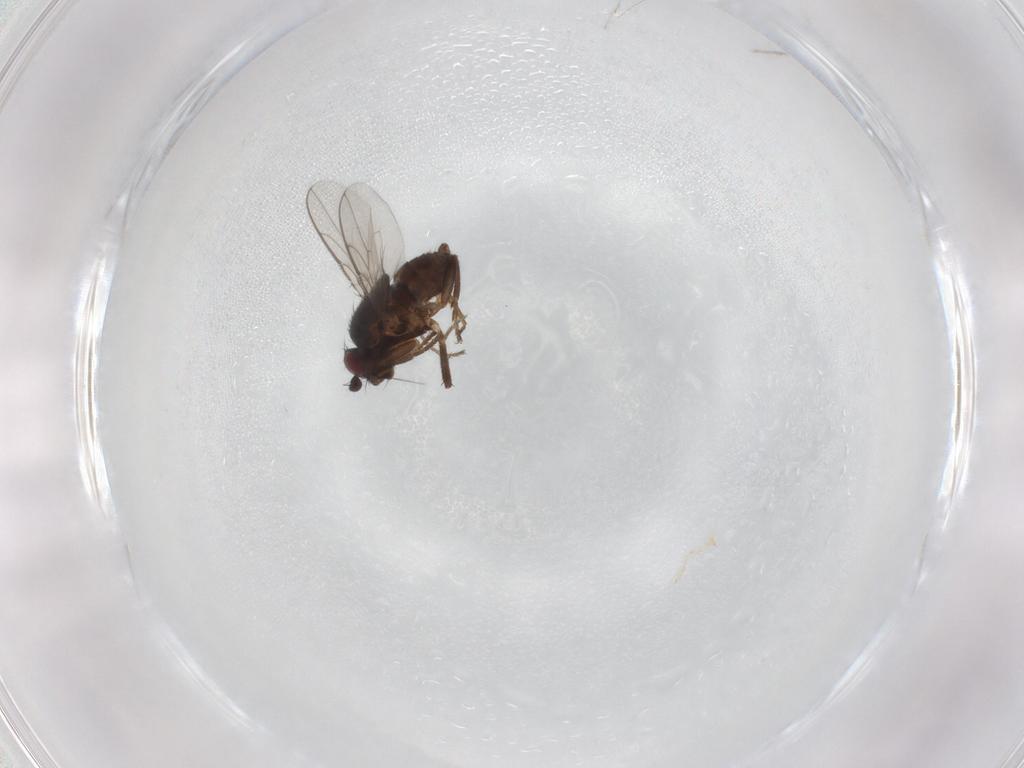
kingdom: Animalia
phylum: Arthropoda
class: Insecta
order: Diptera
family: Sphaeroceridae
